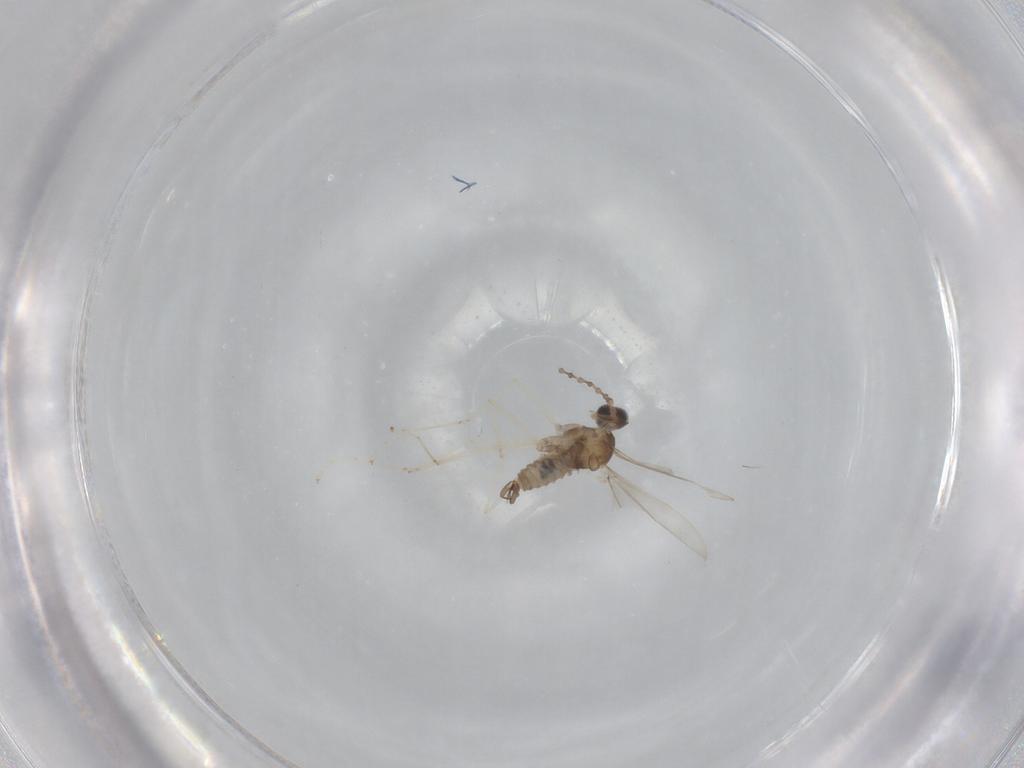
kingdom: Animalia
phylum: Arthropoda
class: Insecta
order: Diptera
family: Cecidomyiidae
